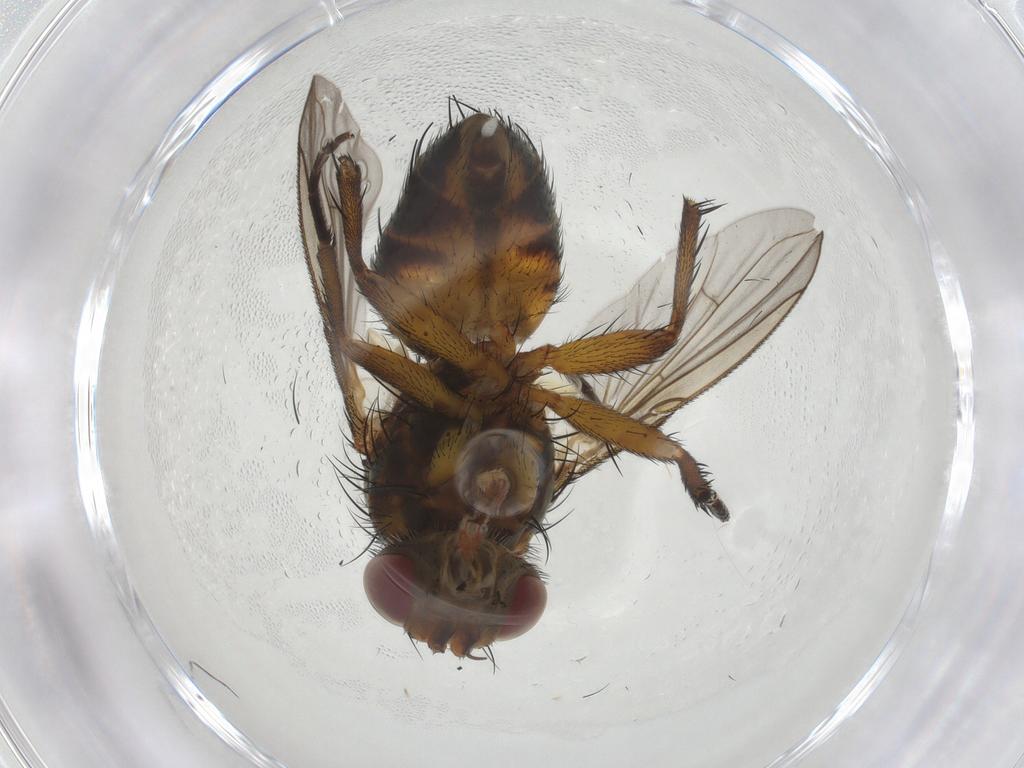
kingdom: Animalia
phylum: Arthropoda
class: Insecta
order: Diptera
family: Tachinidae
